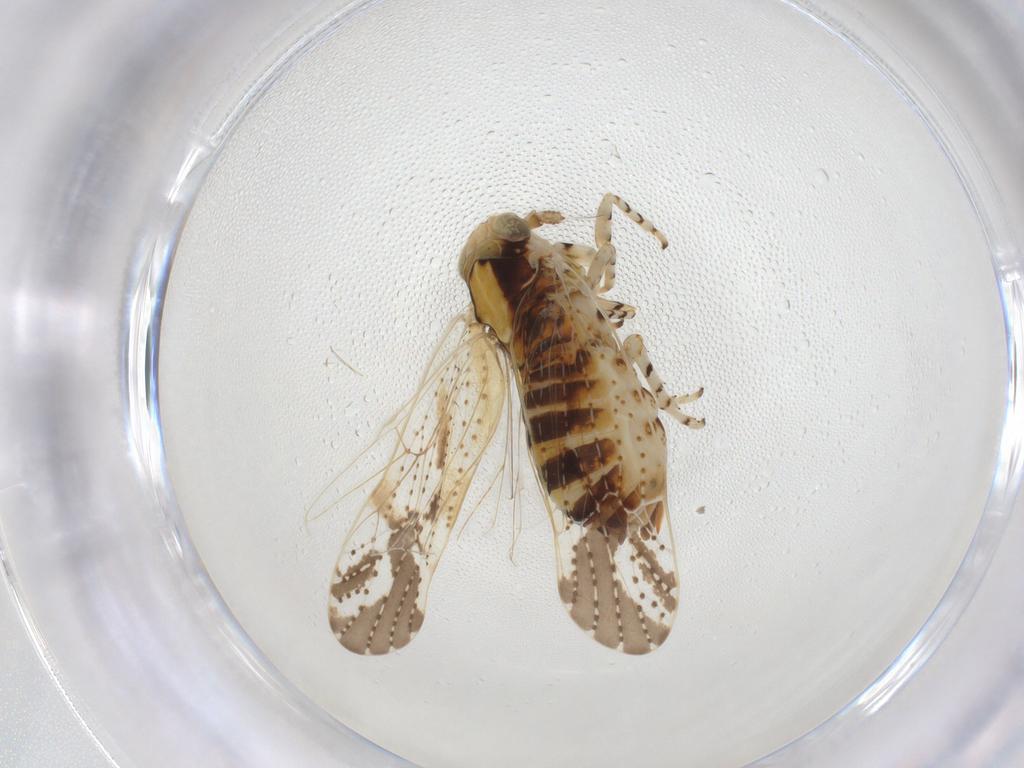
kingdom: Animalia
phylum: Arthropoda
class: Insecta
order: Hemiptera
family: Delphacidae
